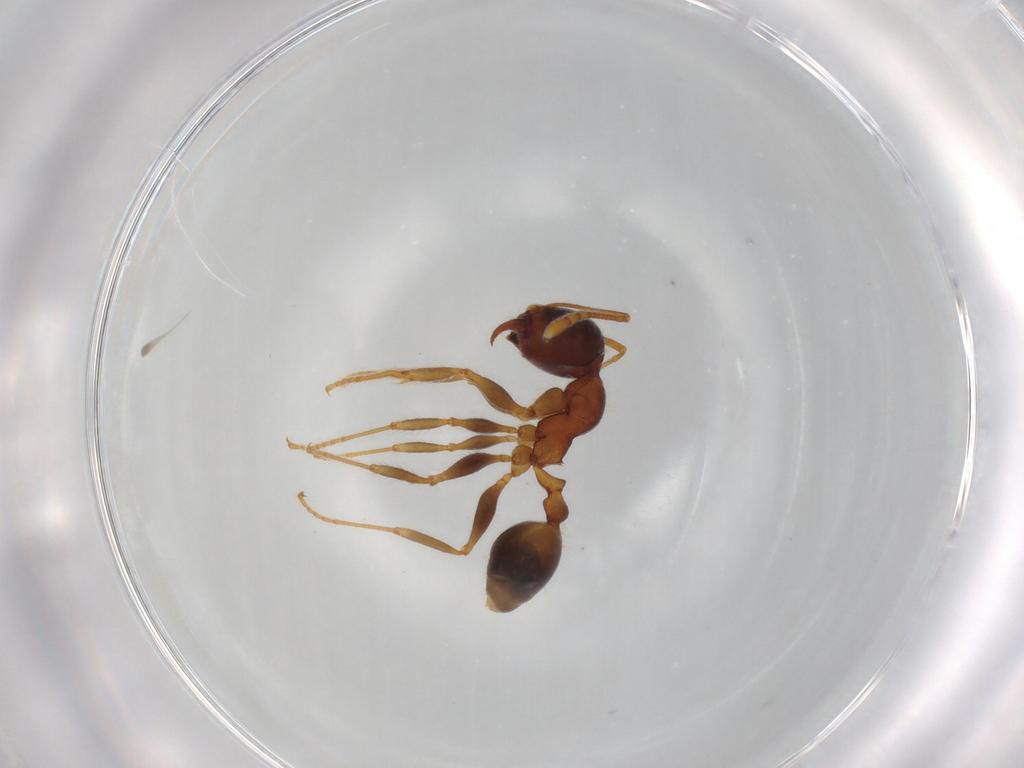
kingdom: Animalia
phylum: Arthropoda
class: Insecta
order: Hymenoptera
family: Formicidae
